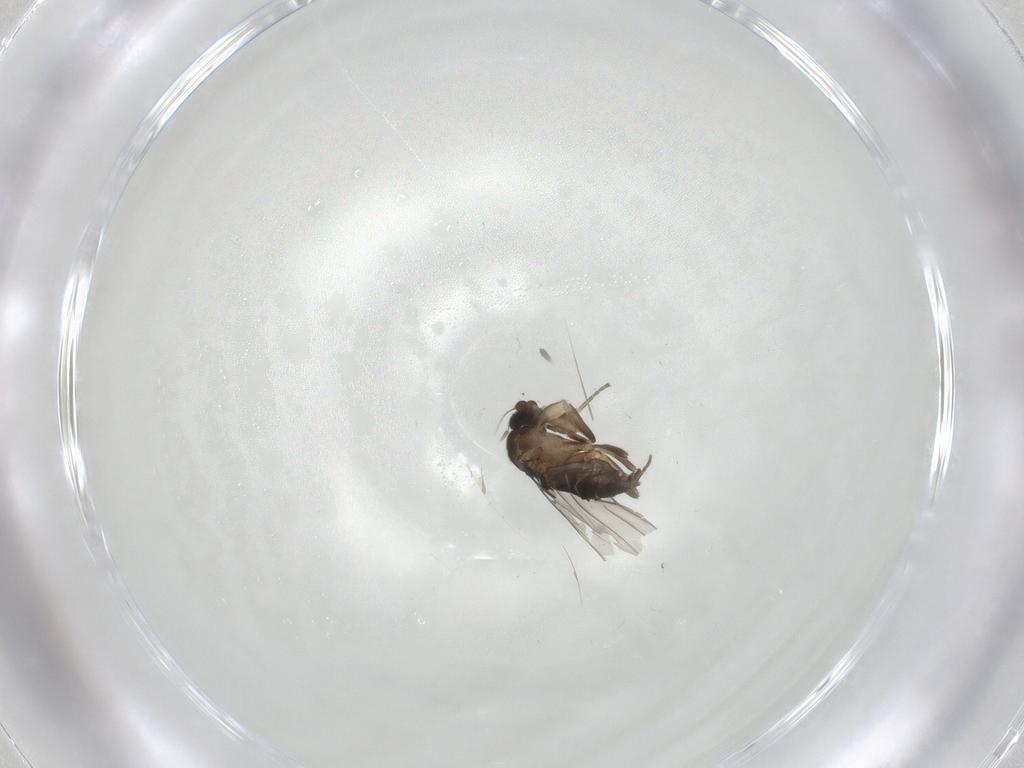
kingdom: Animalia
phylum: Arthropoda
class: Insecta
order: Diptera
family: Phoridae
